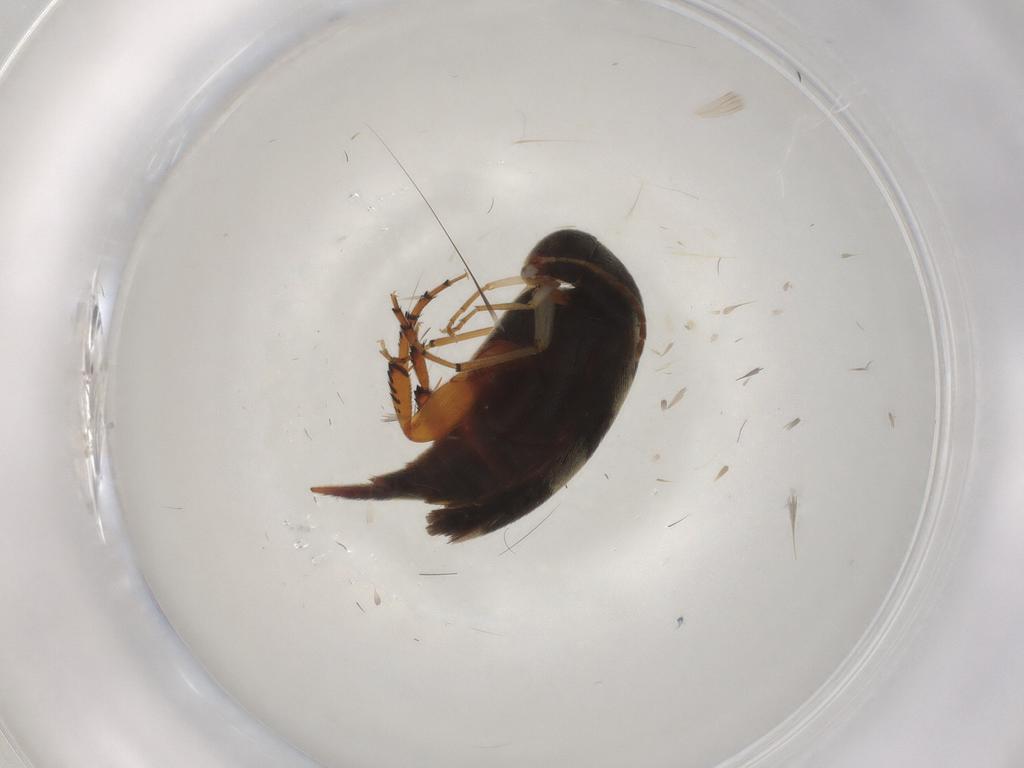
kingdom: Animalia
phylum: Arthropoda
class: Insecta
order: Coleoptera
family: Mordellidae
